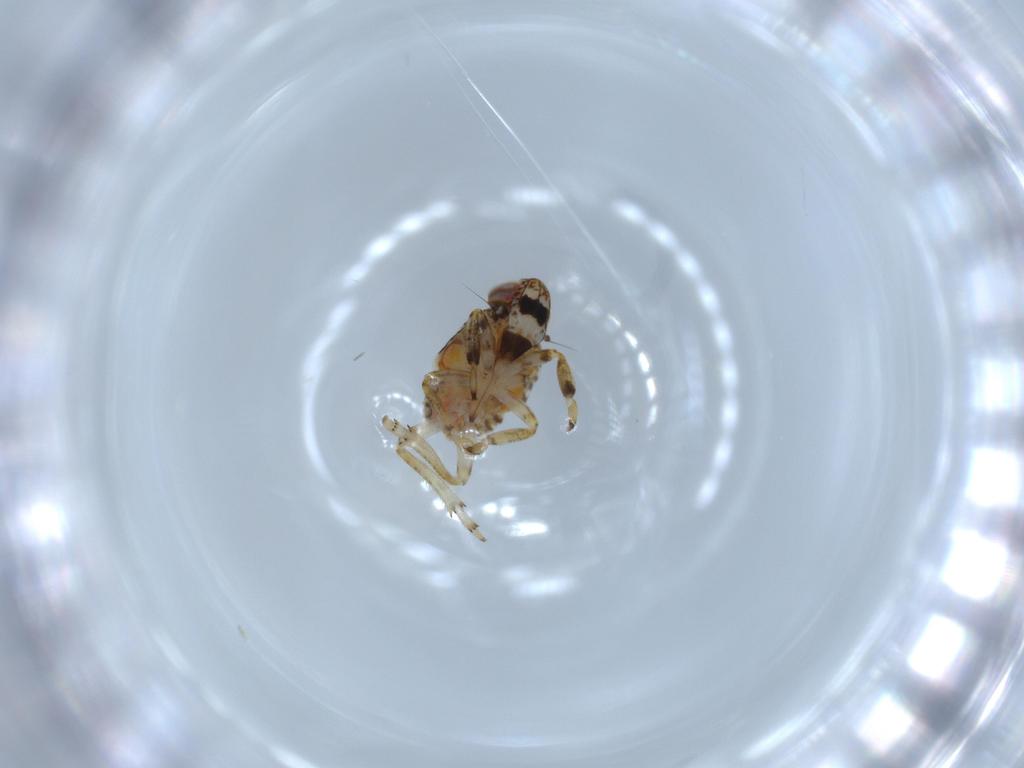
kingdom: Animalia
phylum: Arthropoda
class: Insecta
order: Hemiptera
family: Issidae
